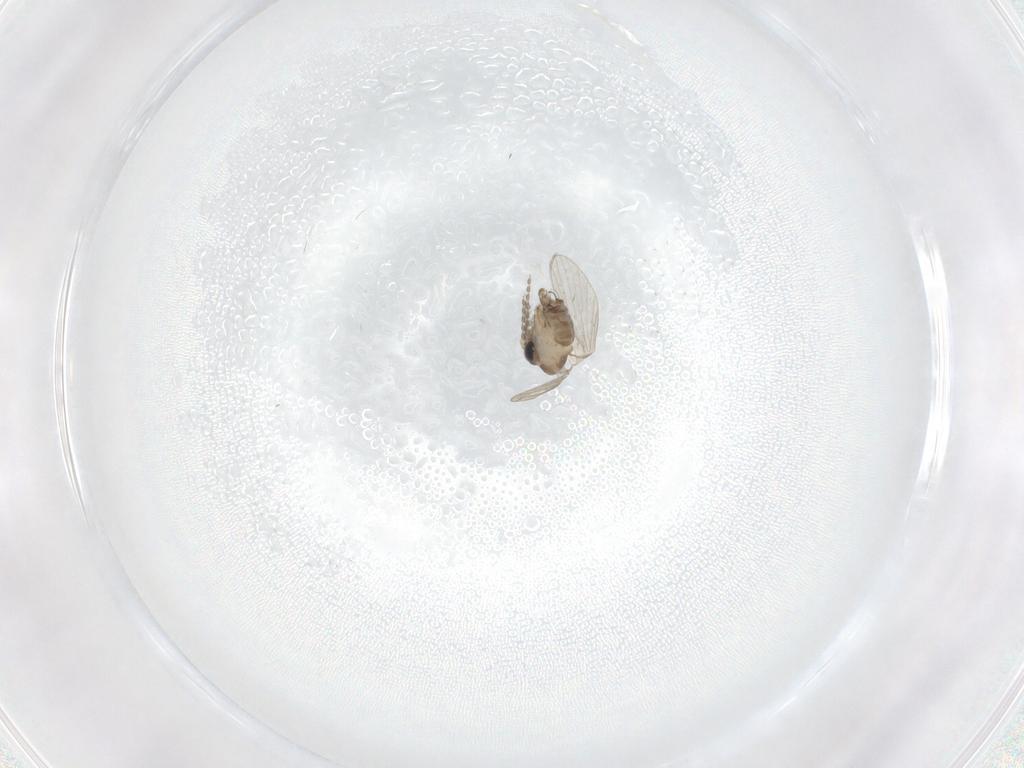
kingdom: Animalia
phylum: Arthropoda
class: Insecta
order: Diptera
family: Psychodidae
